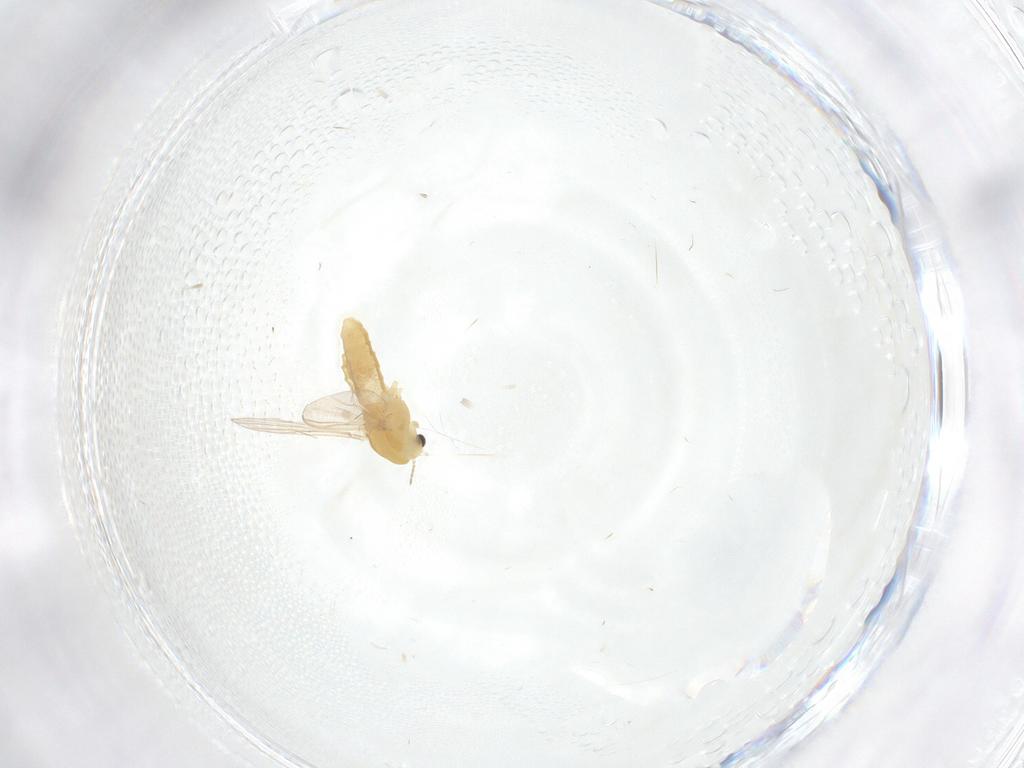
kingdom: Animalia
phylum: Arthropoda
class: Insecta
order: Diptera
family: Chironomidae
